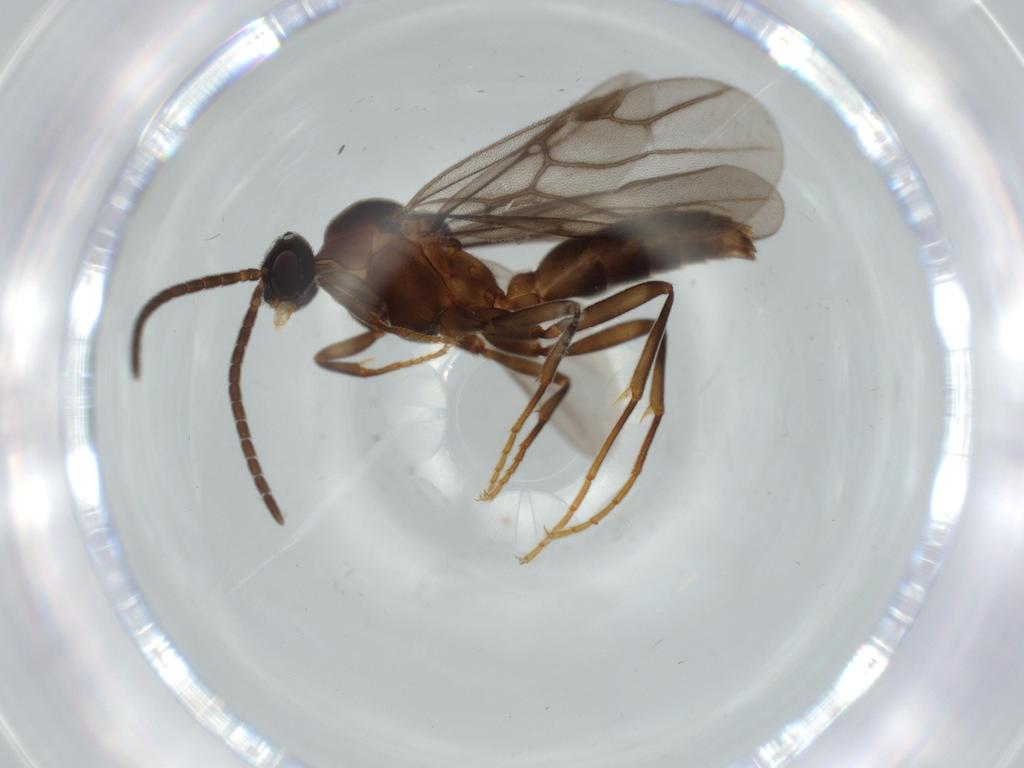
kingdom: Animalia
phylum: Arthropoda
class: Insecta
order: Hymenoptera
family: Formicidae
